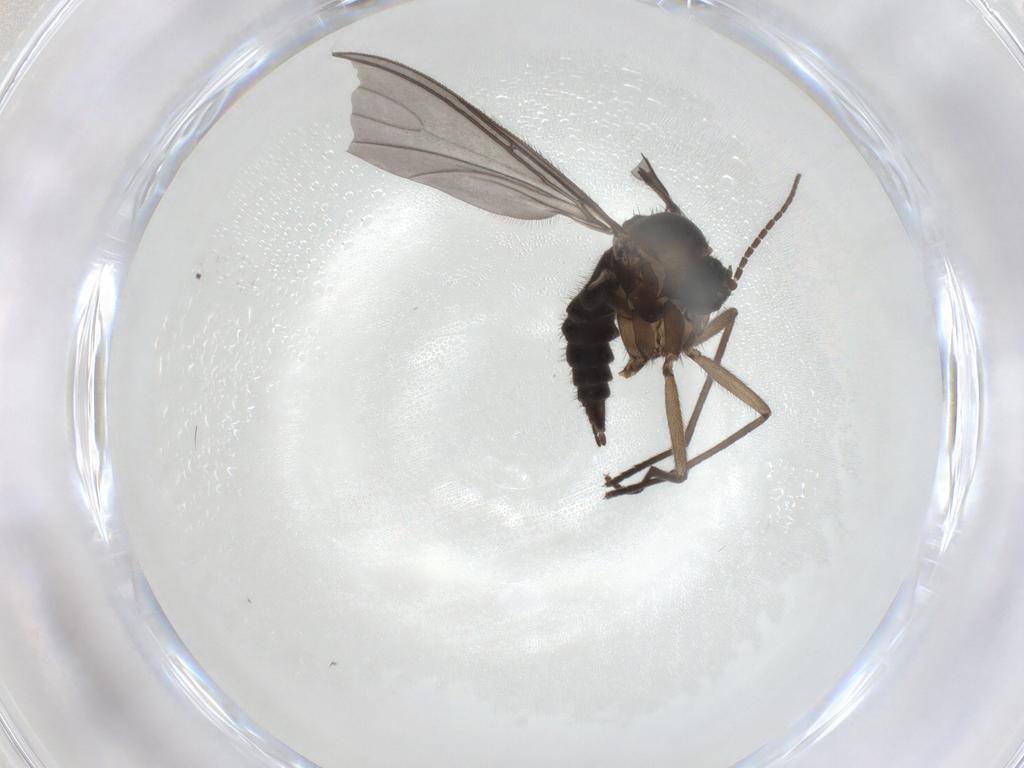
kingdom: Animalia
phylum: Arthropoda
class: Insecta
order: Diptera
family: Sciaridae
